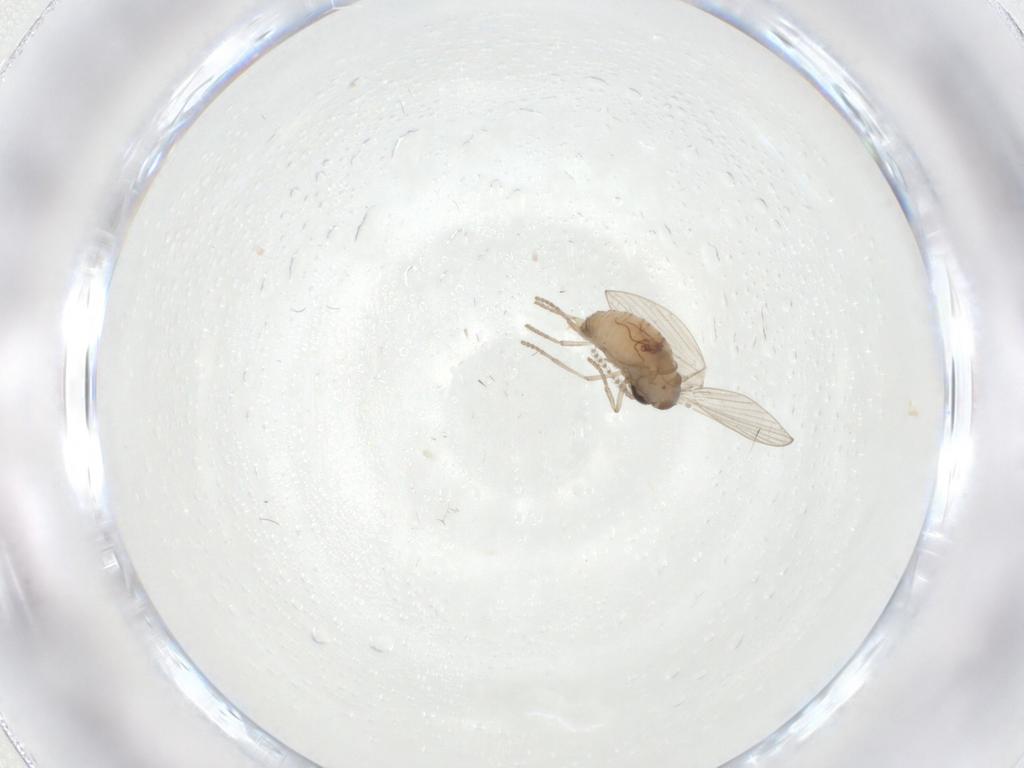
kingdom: Animalia
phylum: Arthropoda
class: Insecta
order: Diptera
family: Psychodidae
